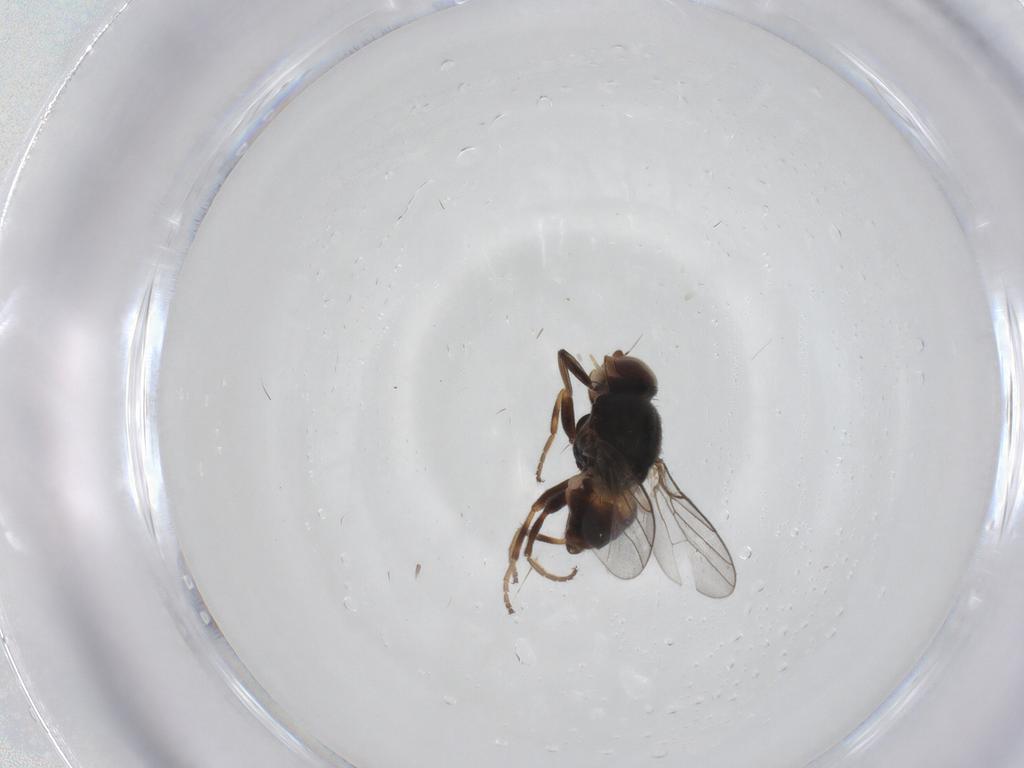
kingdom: Animalia
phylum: Arthropoda
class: Insecta
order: Diptera
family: Chloropidae
